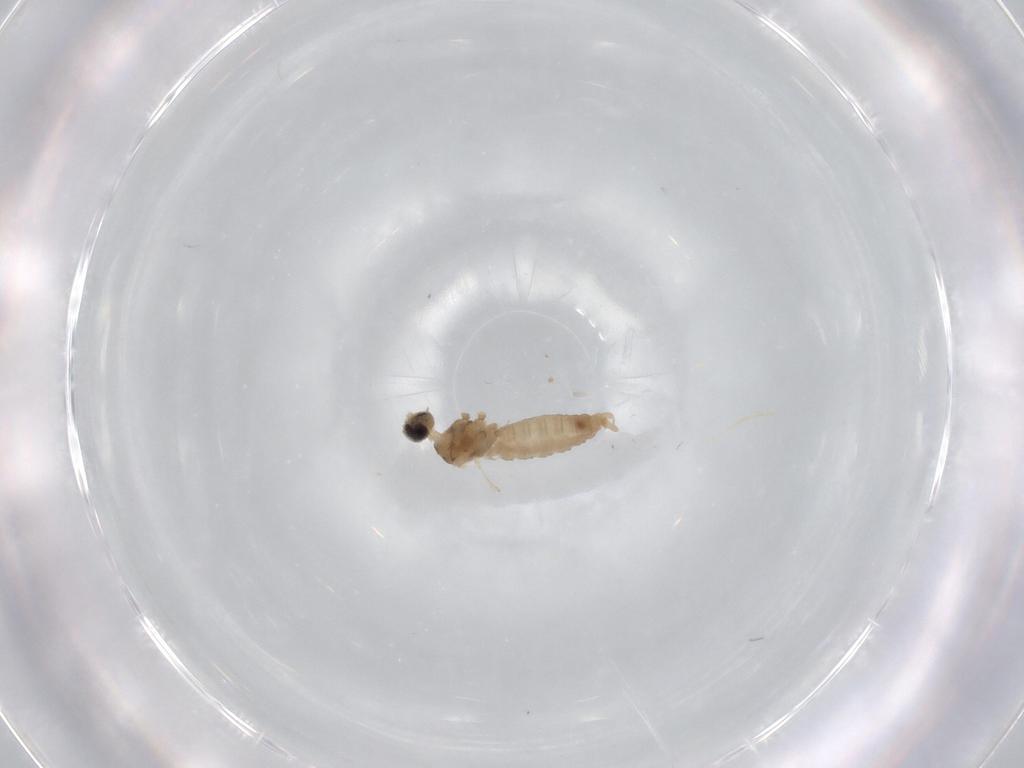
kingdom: Animalia
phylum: Arthropoda
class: Insecta
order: Diptera
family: Cecidomyiidae
